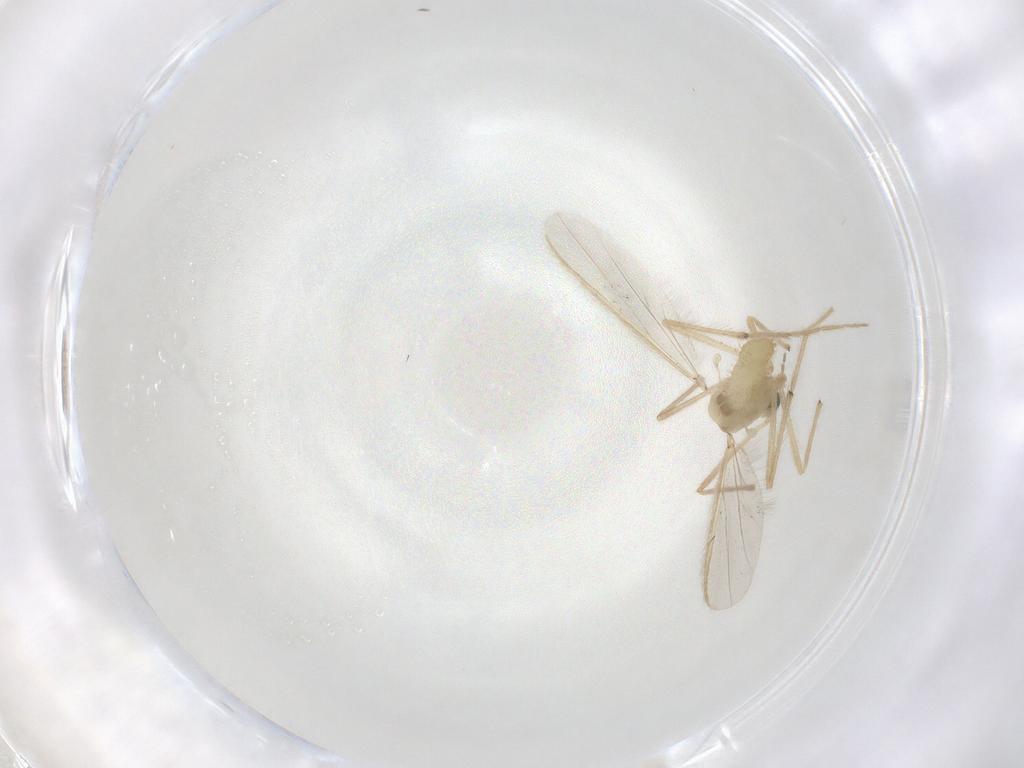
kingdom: Animalia
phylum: Arthropoda
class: Insecta
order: Diptera
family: Chironomidae
